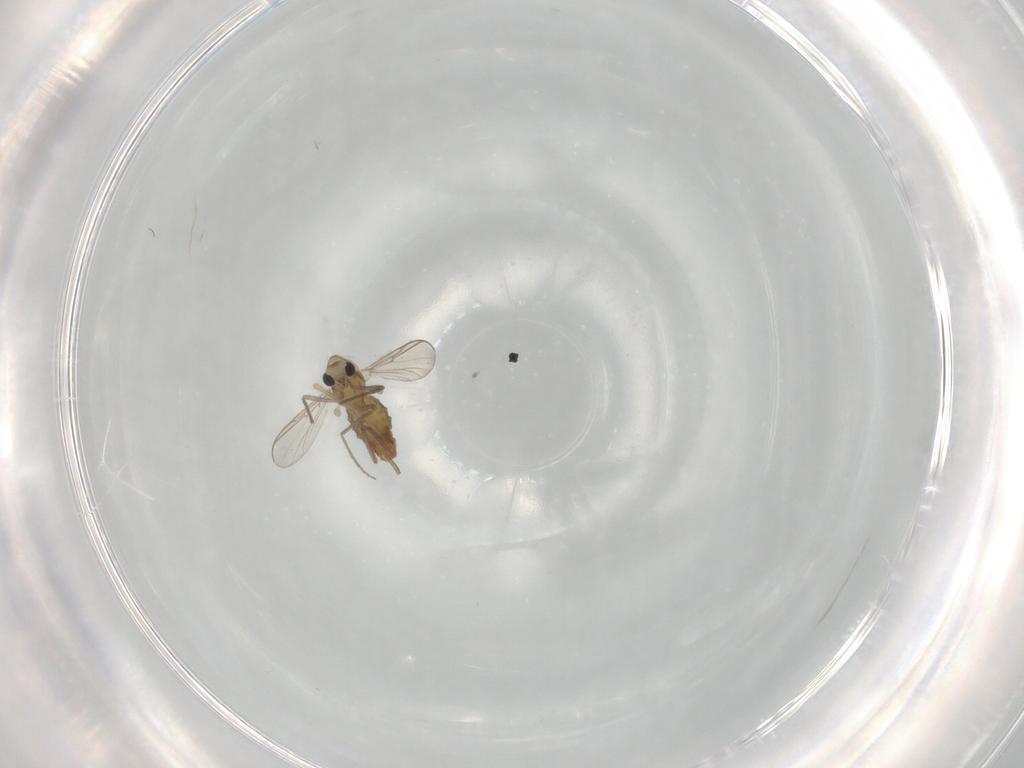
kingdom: Animalia
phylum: Arthropoda
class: Insecta
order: Diptera
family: Chironomidae
